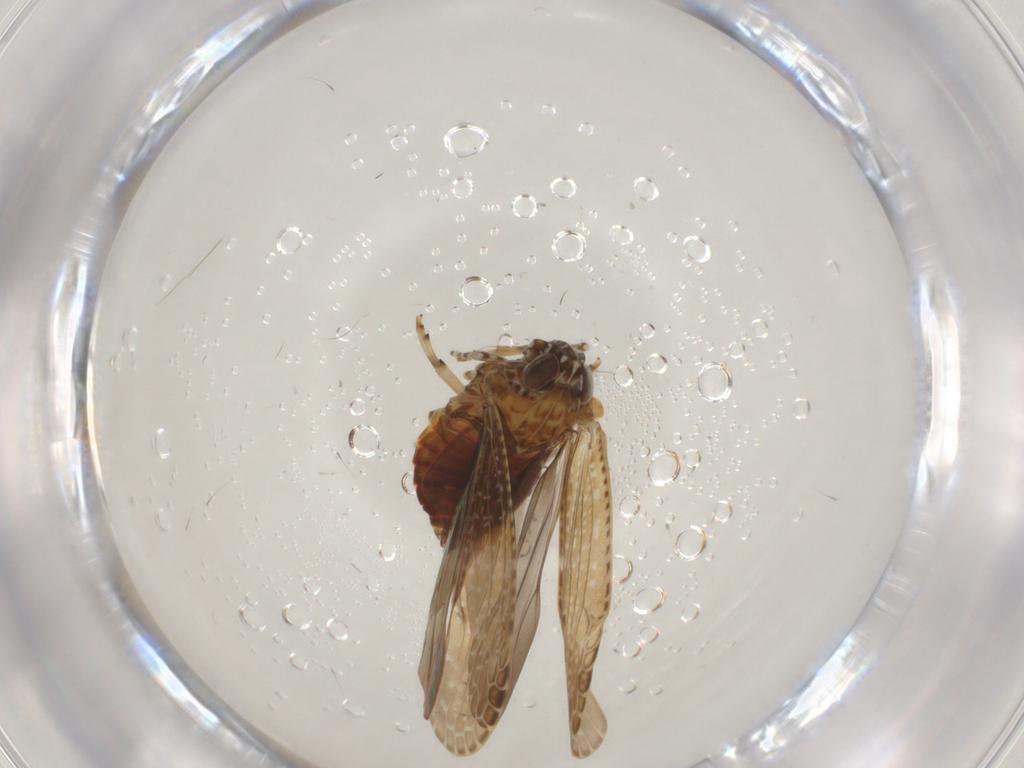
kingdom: Animalia
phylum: Arthropoda
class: Insecta
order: Hemiptera
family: Achilidae
